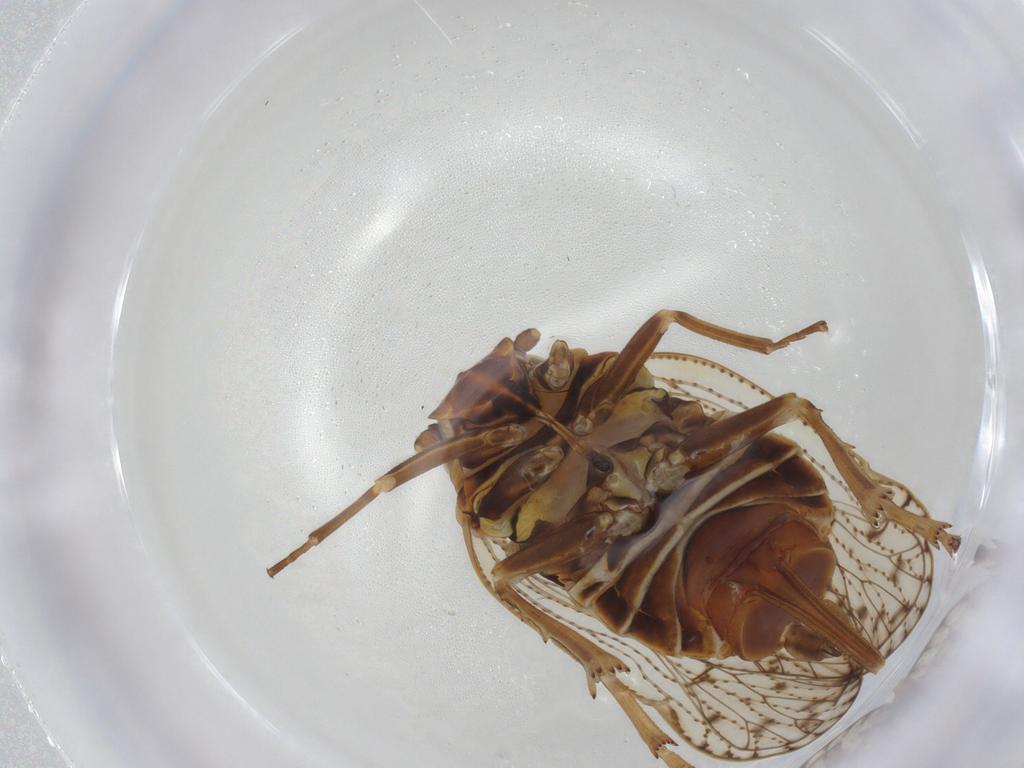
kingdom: Animalia
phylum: Arthropoda
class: Insecta
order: Hemiptera
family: Cixiidae
